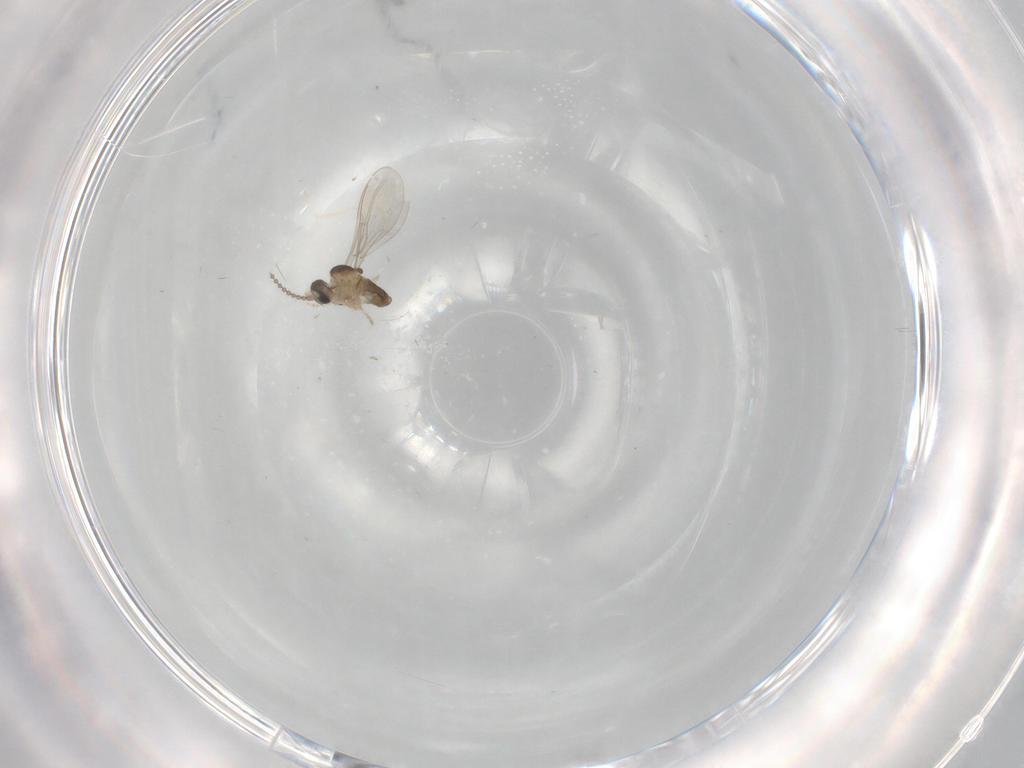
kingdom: Animalia
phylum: Arthropoda
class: Insecta
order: Diptera
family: Cecidomyiidae
